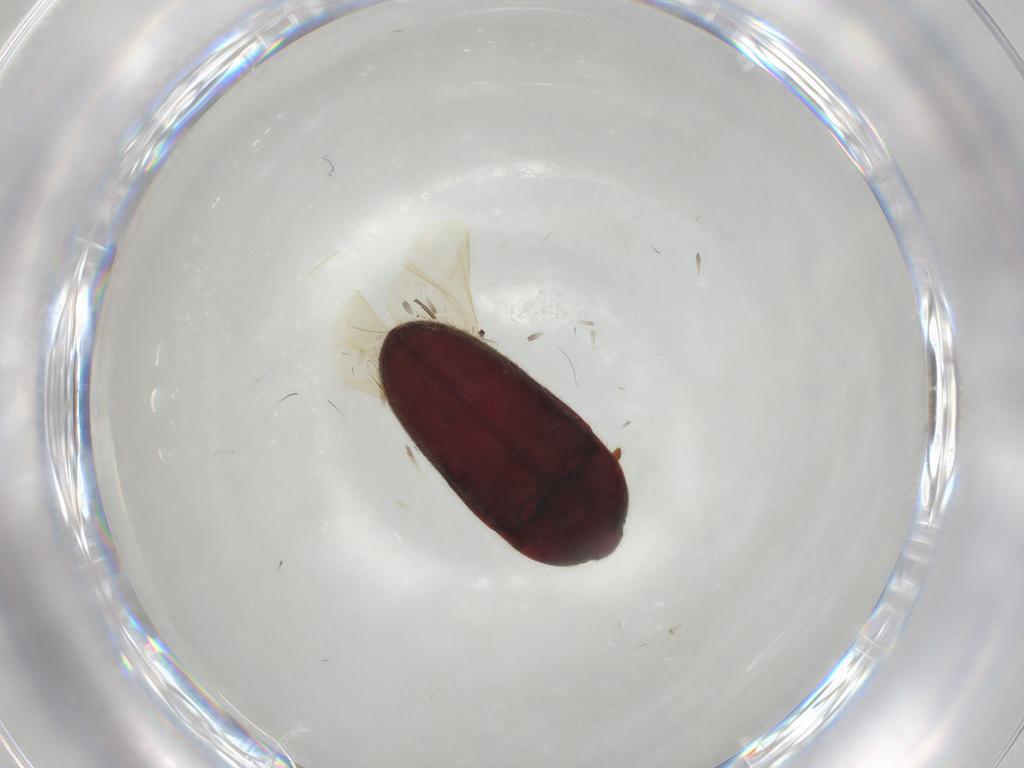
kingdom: Animalia
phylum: Arthropoda
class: Insecta
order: Coleoptera
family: Throscidae
